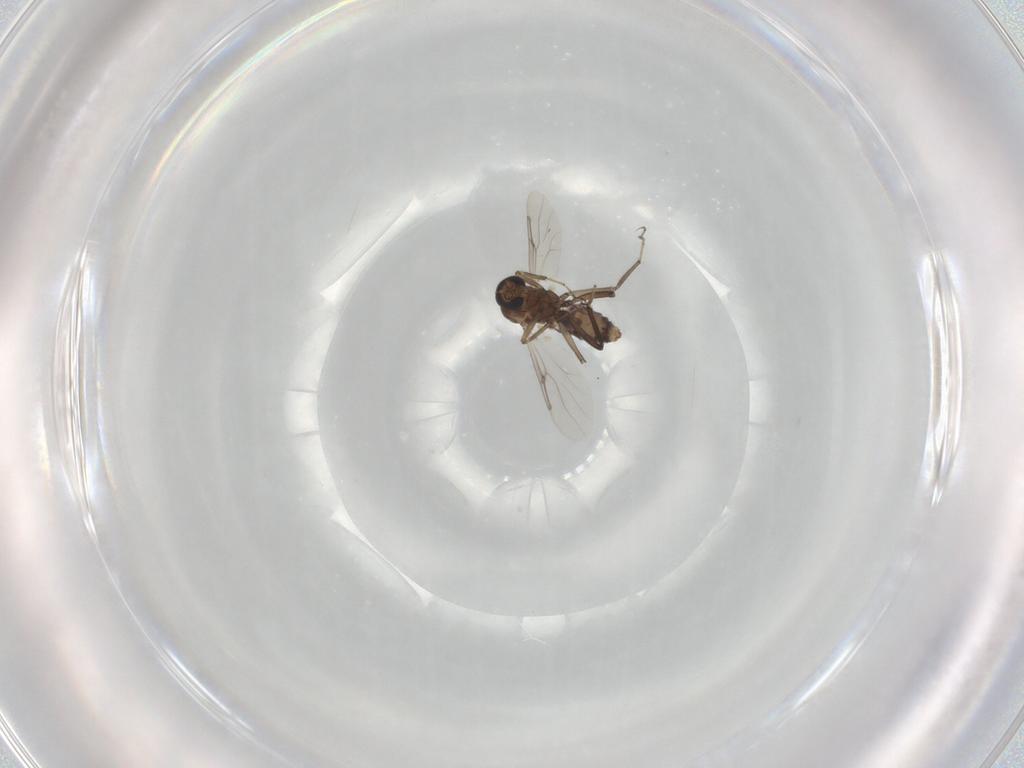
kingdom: Animalia
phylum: Arthropoda
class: Insecta
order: Diptera
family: Ceratopogonidae
